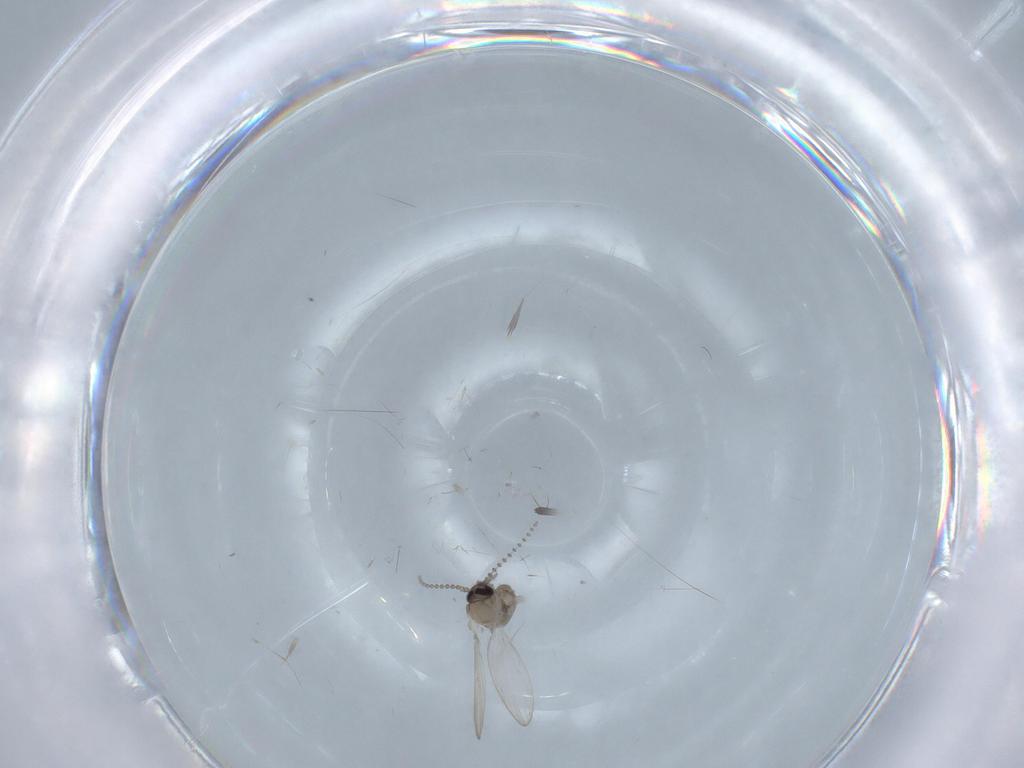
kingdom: Animalia
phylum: Arthropoda
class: Insecta
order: Diptera
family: Psychodidae
